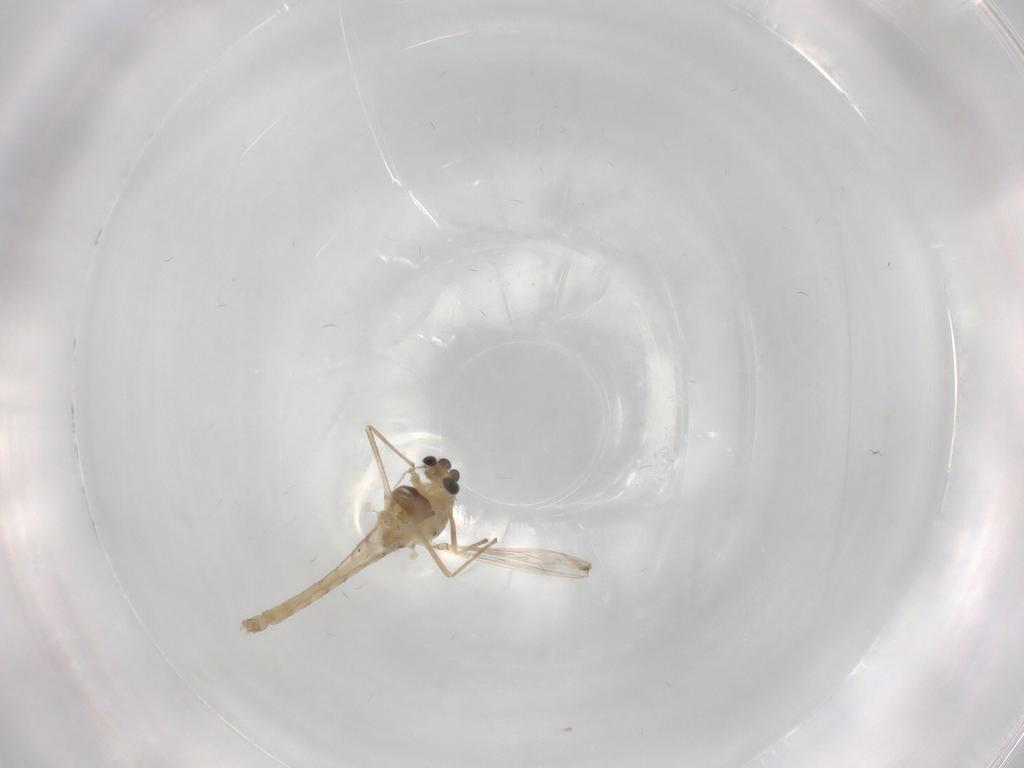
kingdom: Animalia
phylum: Arthropoda
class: Insecta
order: Diptera
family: Chironomidae
